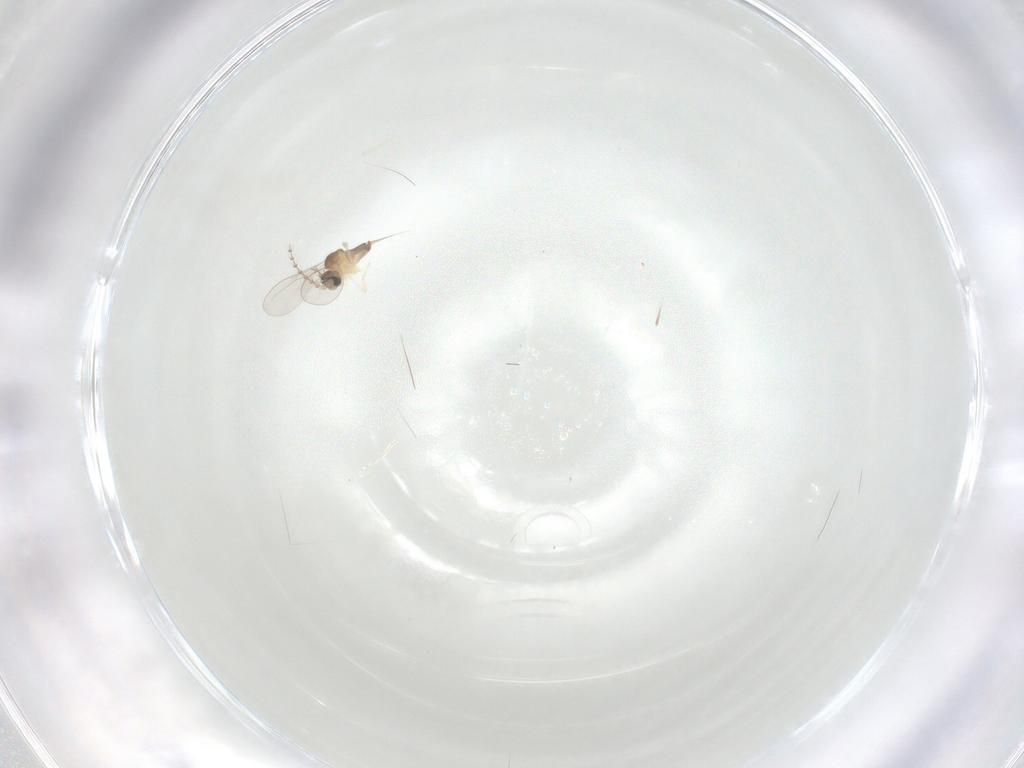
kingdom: Animalia
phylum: Arthropoda
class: Insecta
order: Diptera
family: Cecidomyiidae
